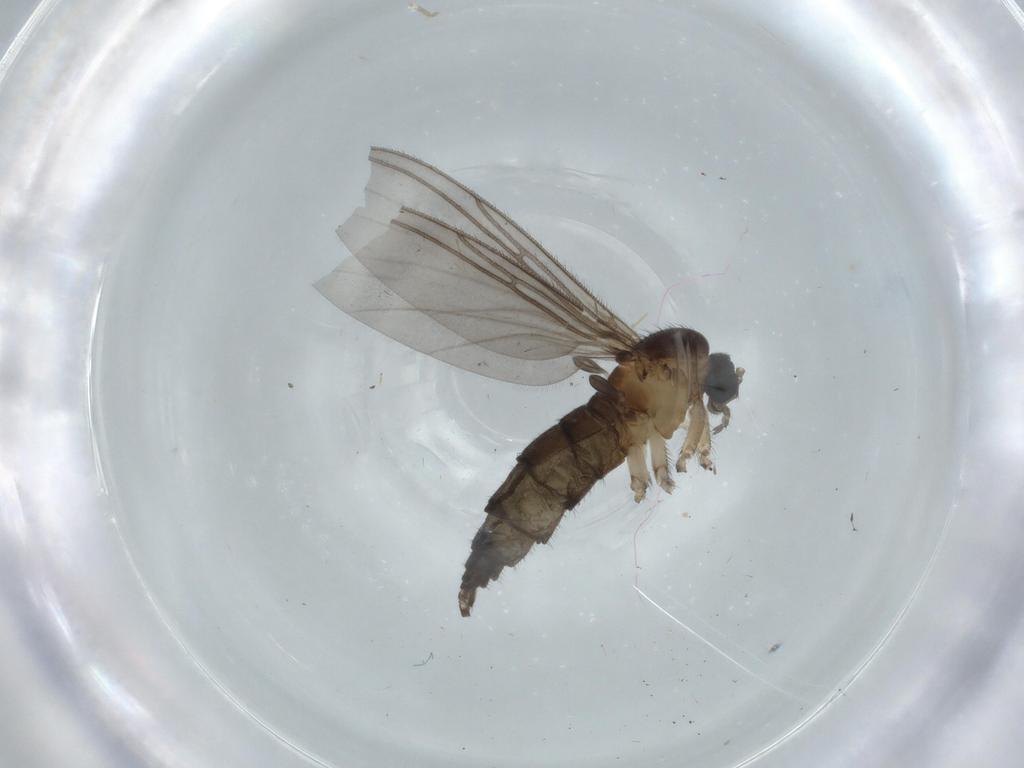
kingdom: Animalia
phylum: Arthropoda
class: Insecta
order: Diptera
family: Sciaridae
